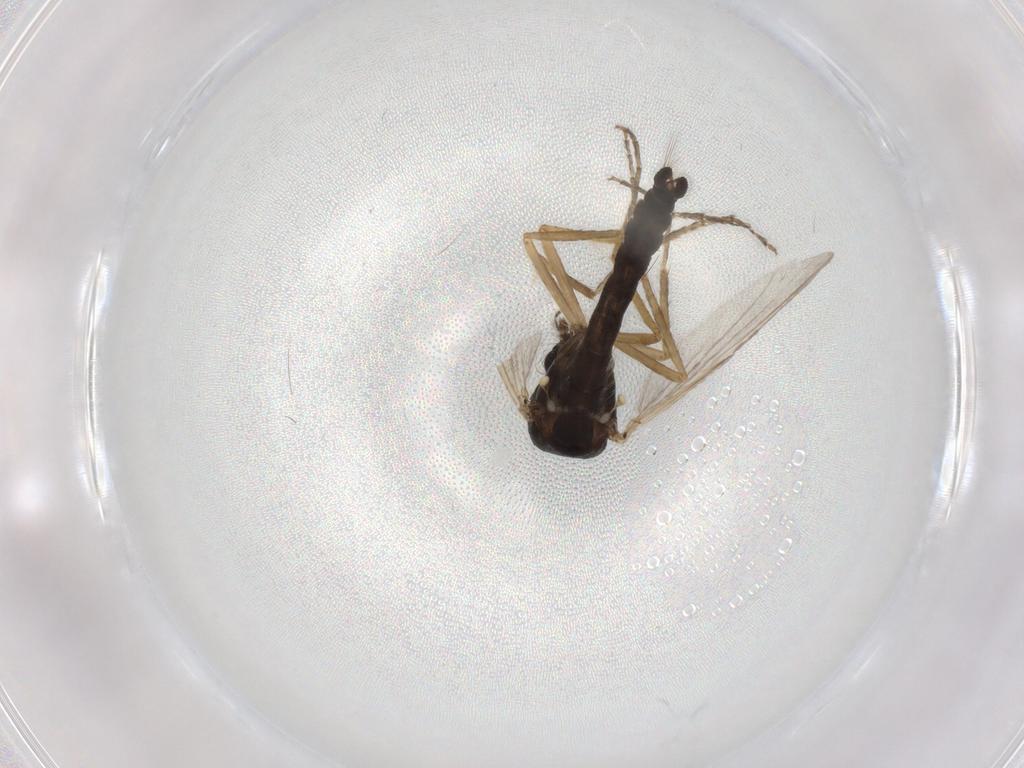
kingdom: Animalia
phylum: Arthropoda
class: Insecta
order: Diptera
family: Ceratopogonidae
